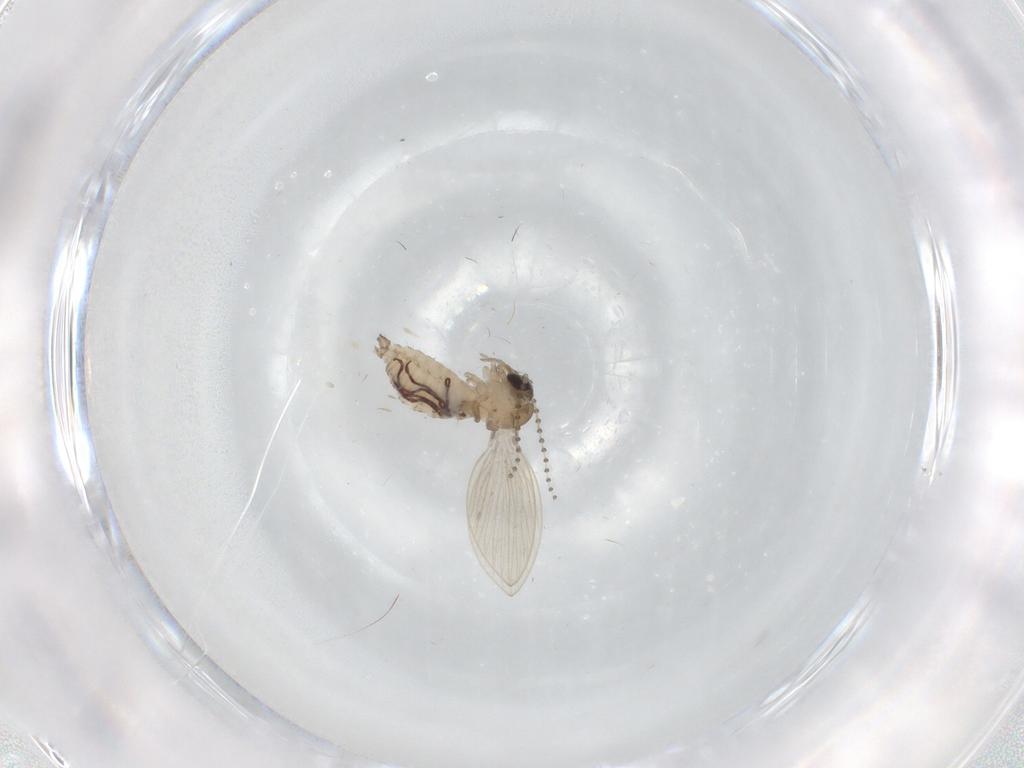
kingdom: Animalia
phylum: Arthropoda
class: Insecta
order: Diptera
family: Psychodidae
